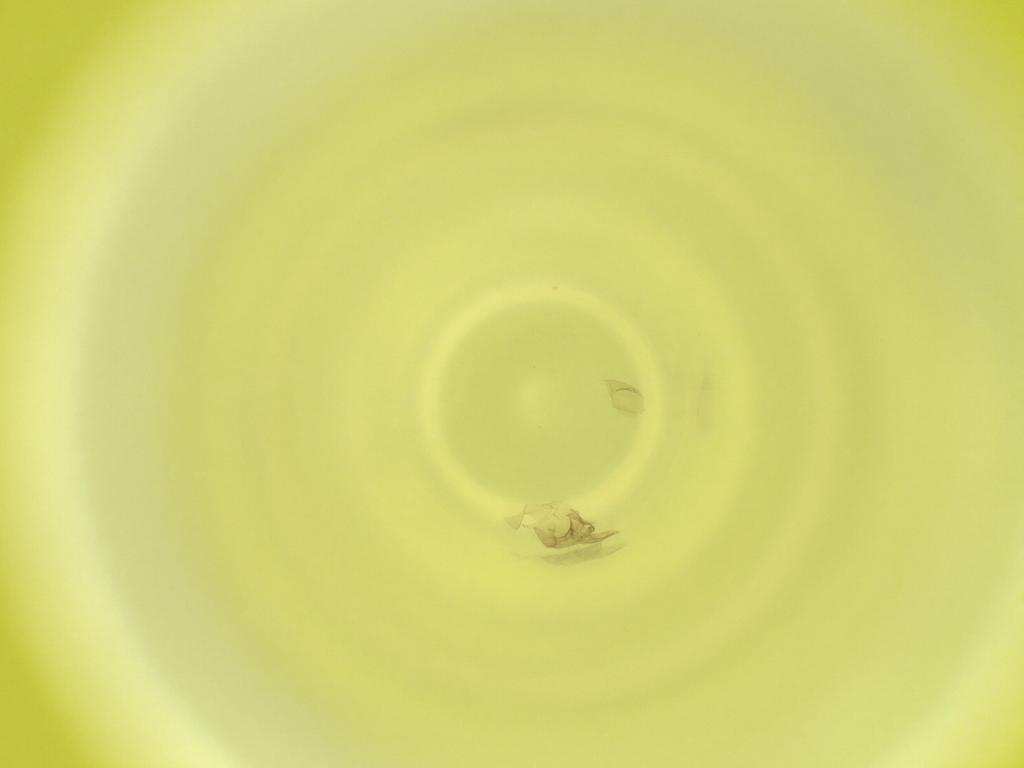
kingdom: Animalia
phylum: Arthropoda
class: Insecta
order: Diptera
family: Cecidomyiidae
